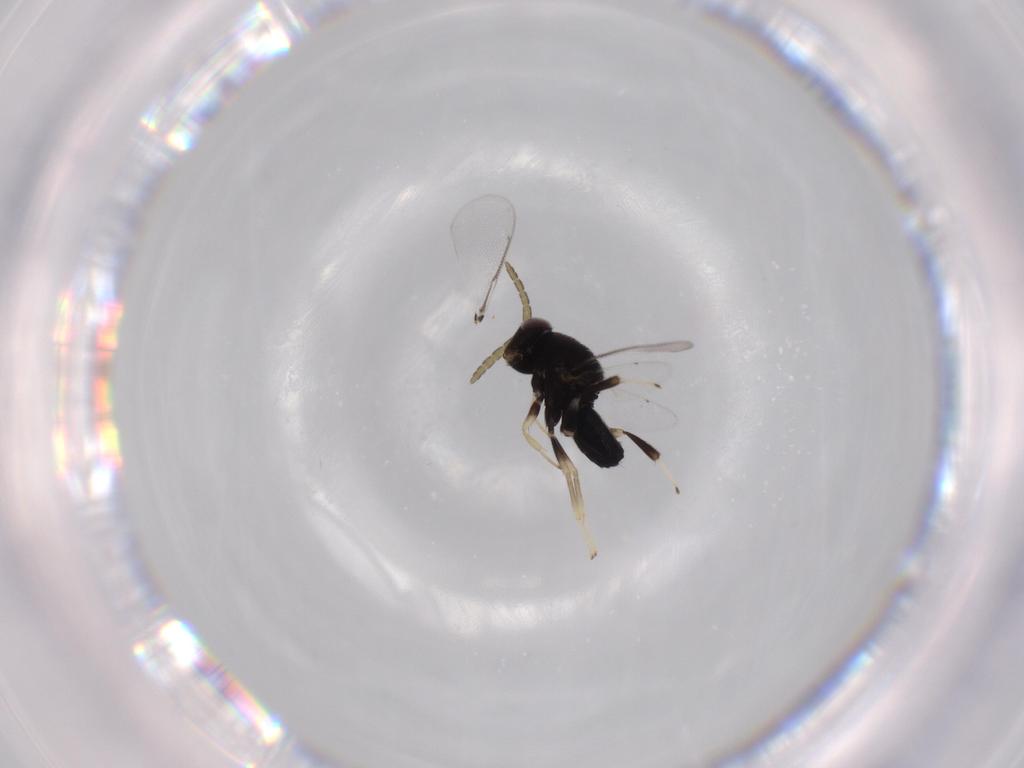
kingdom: Animalia
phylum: Arthropoda
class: Insecta
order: Hymenoptera
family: Aphelinidae
